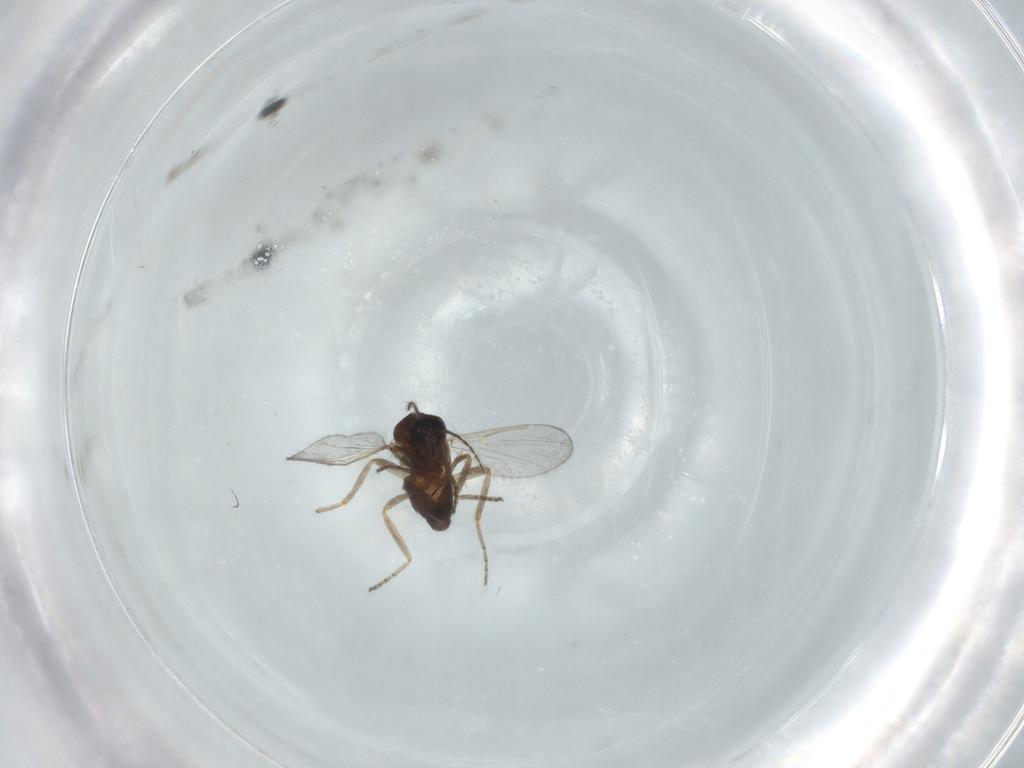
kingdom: Animalia
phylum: Arthropoda
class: Insecta
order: Diptera
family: Ceratopogonidae
